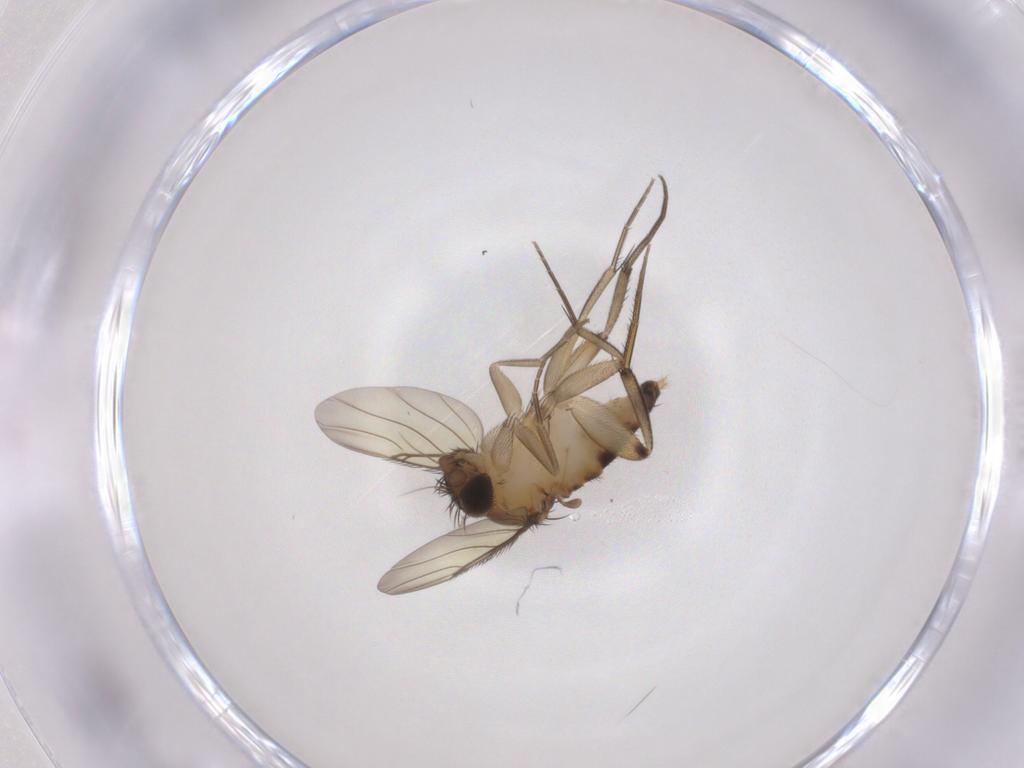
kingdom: Animalia
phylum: Arthropoda
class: Insecta
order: Diptera
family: Phoridae
